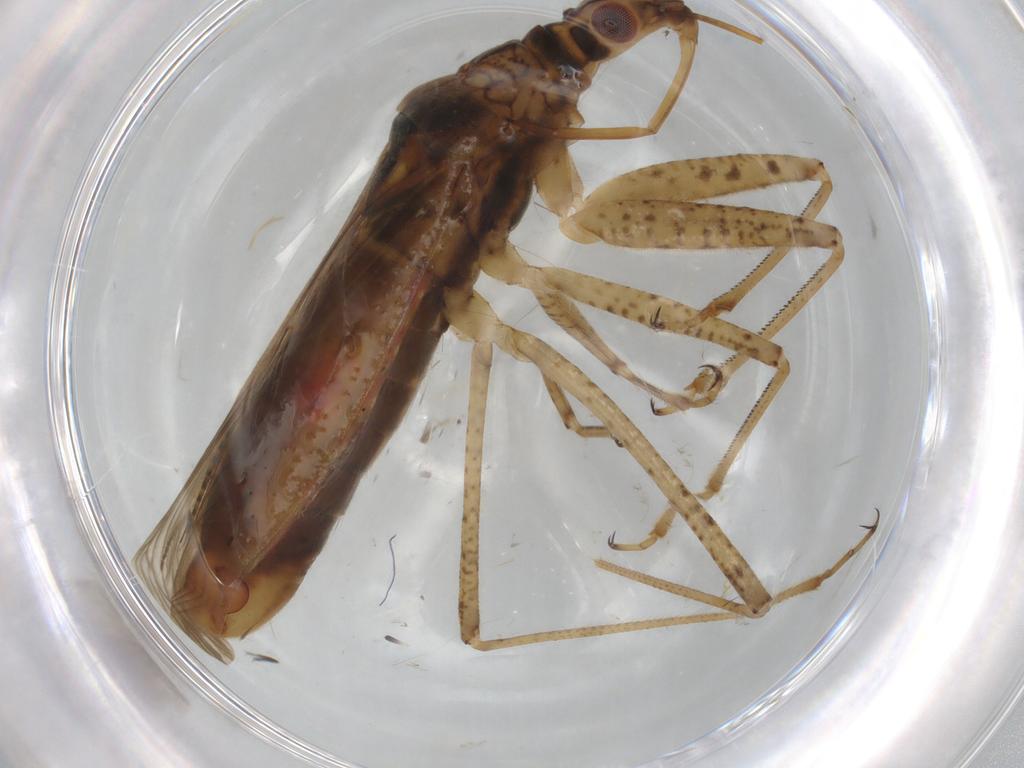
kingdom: Animalia
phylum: Arthropoda
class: Insecta
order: Hemiptera
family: Nabidae
